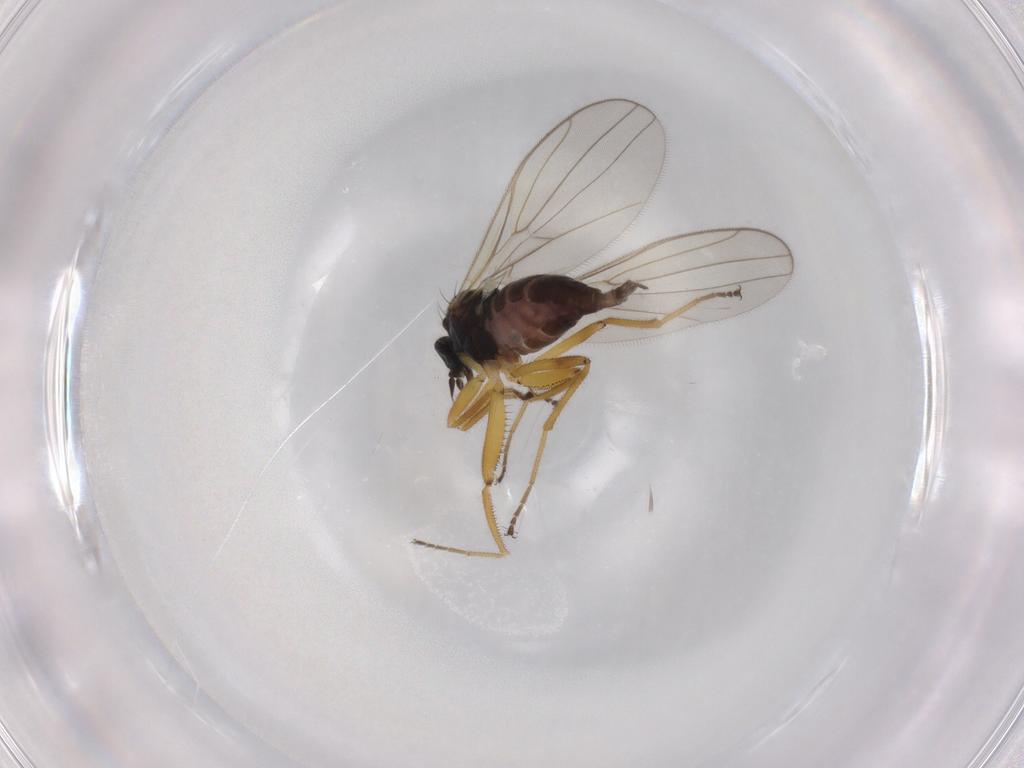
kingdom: Animalia
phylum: Arthropoda
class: Insecta
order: Diptera
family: Hybotidae
